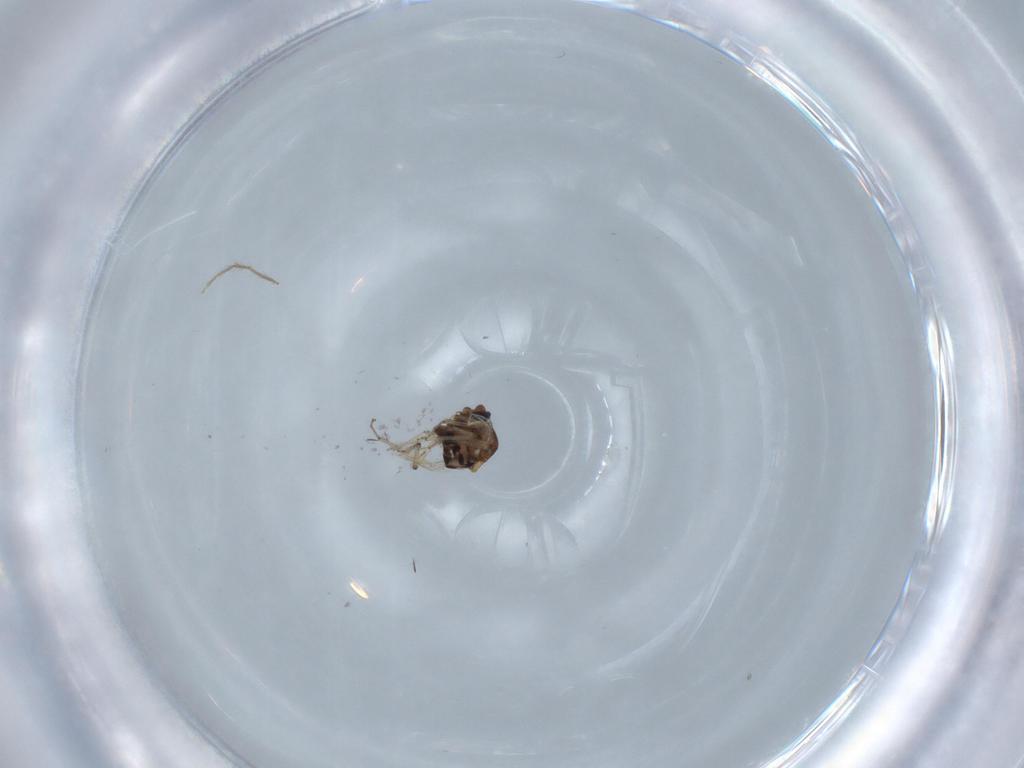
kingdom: Animalia
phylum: Arthropoda
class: Insecta
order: Diptera
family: Ceratopogonidae
